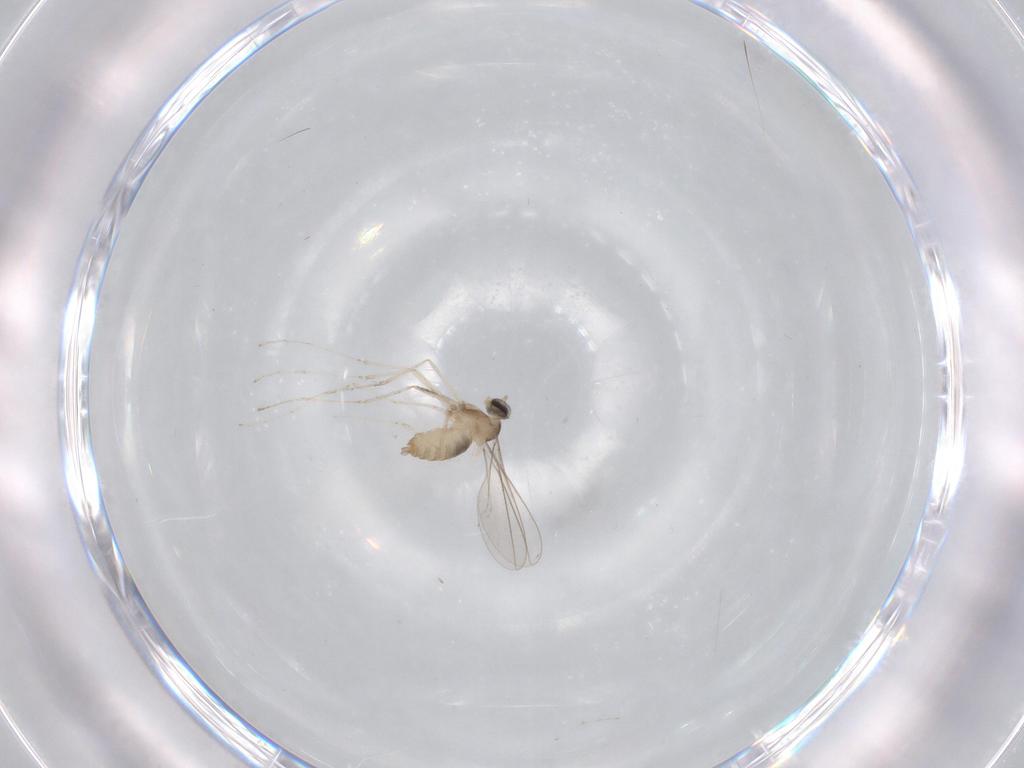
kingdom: Animalia
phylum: Arthropoda
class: Insecta
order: Diptera
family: Cecidomyiidae
